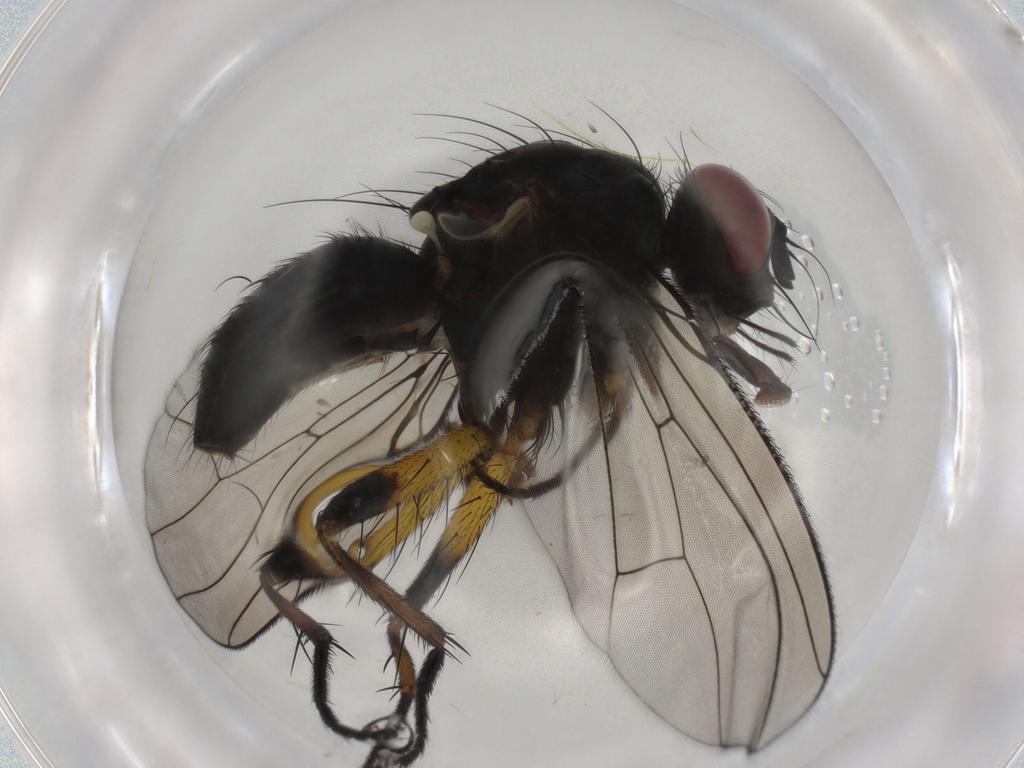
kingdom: Animalia
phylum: Arthropoda
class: Insecta
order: Diptera
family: Muscidae
